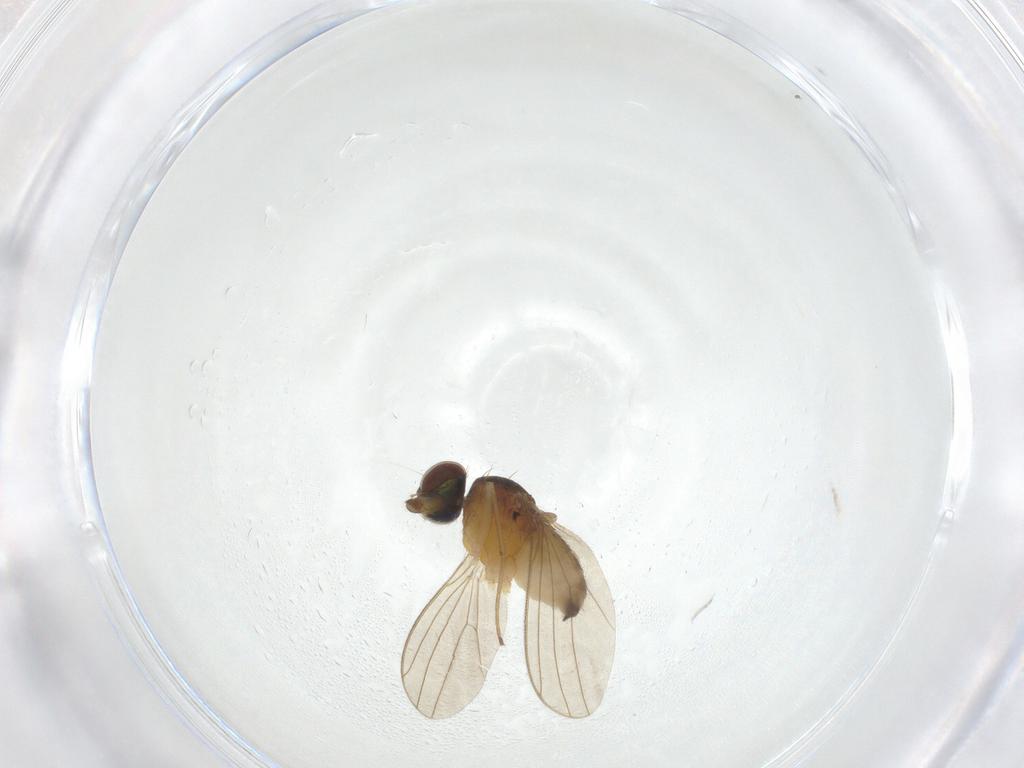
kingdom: Animalia
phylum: Arthropoda
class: Insecta
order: Diptera
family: Dolichopodidae
